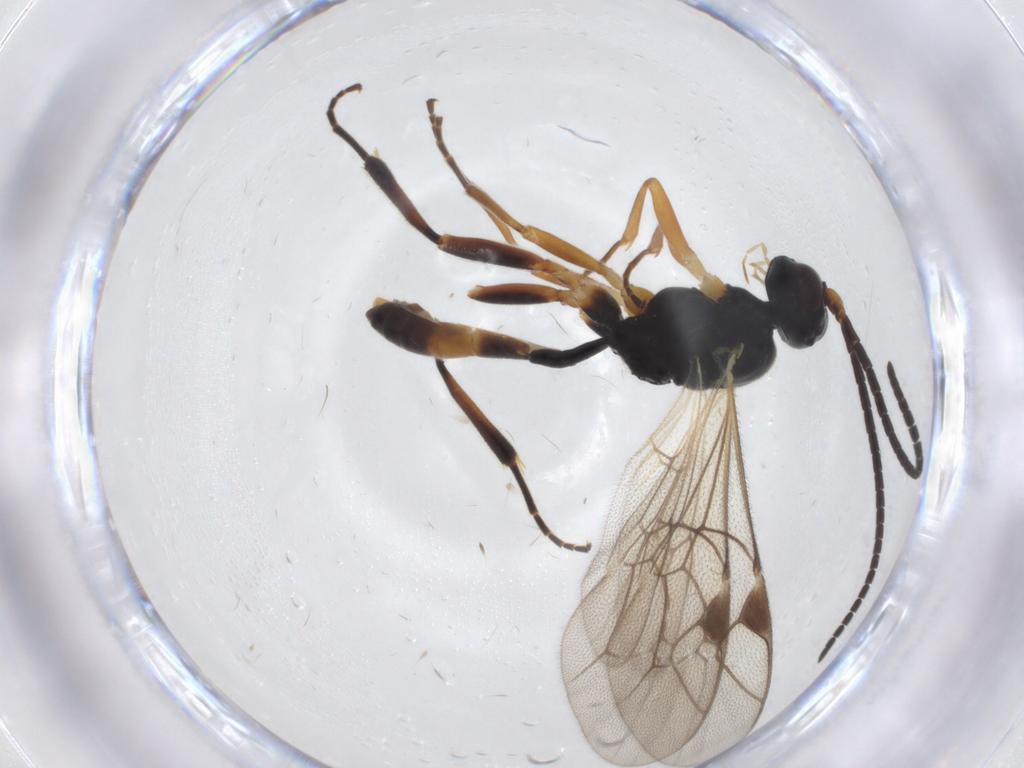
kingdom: Animalia
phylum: Arthropoda
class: Insecta
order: Hymenoptera
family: Ichneumonidae
